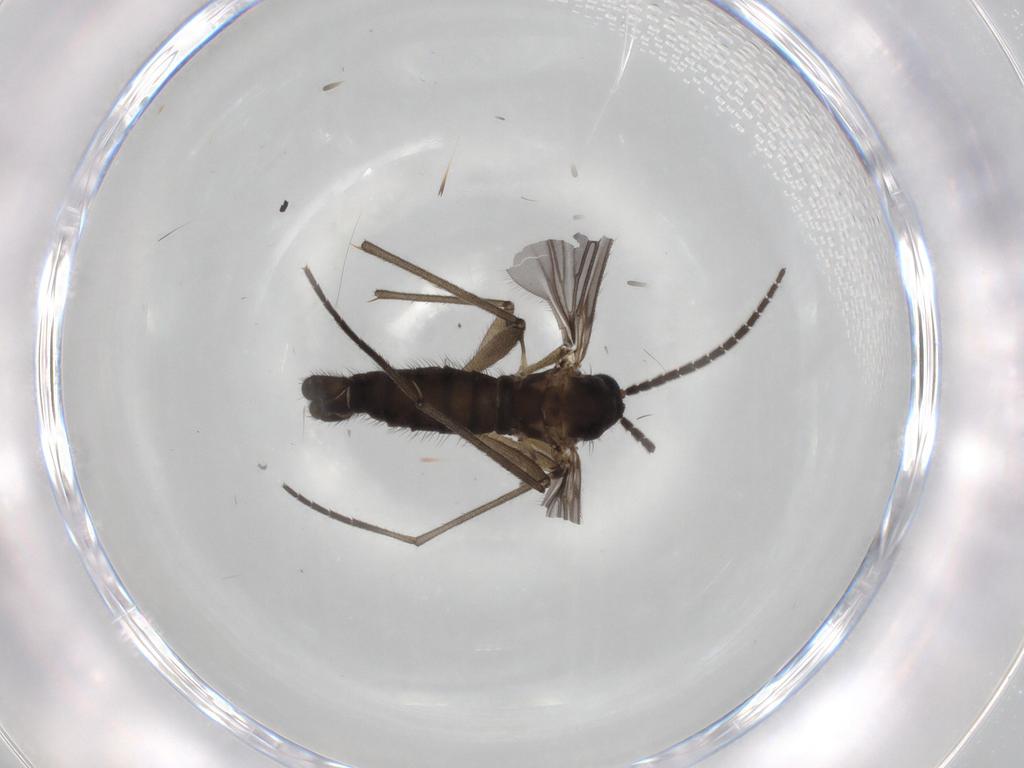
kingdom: Animalia
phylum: Arthropoda
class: Insecta
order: Diptera
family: Sciaridae
